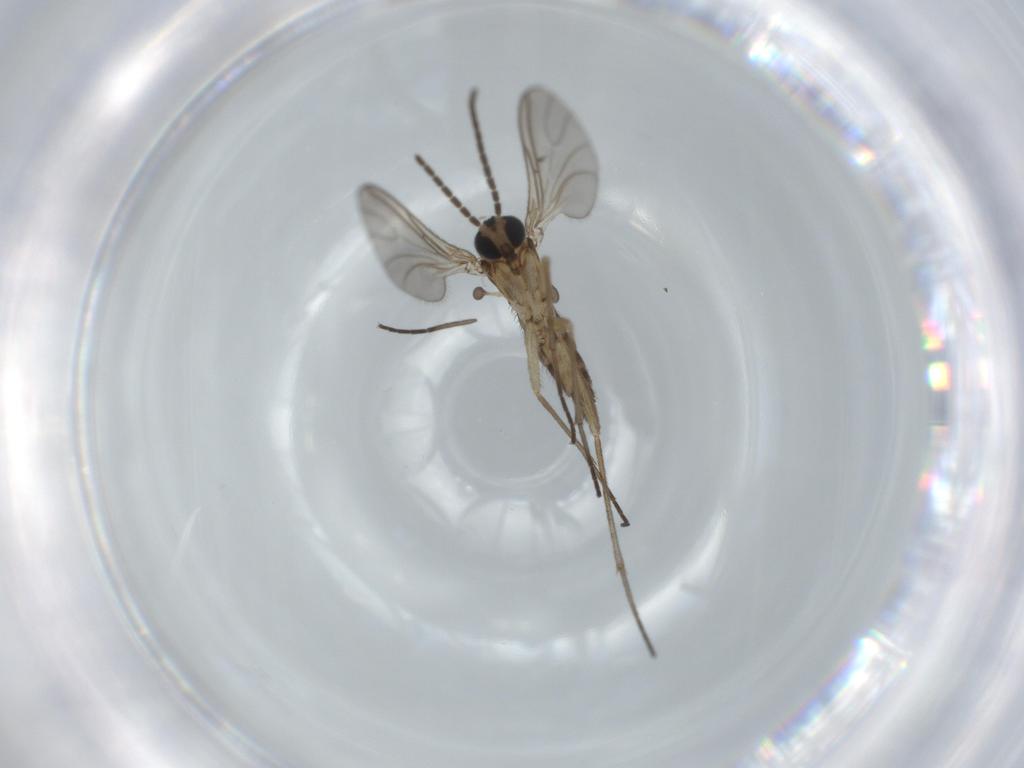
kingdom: Animalia
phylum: Arthropoda
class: Insecta
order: Diptera
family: Sciaridae
